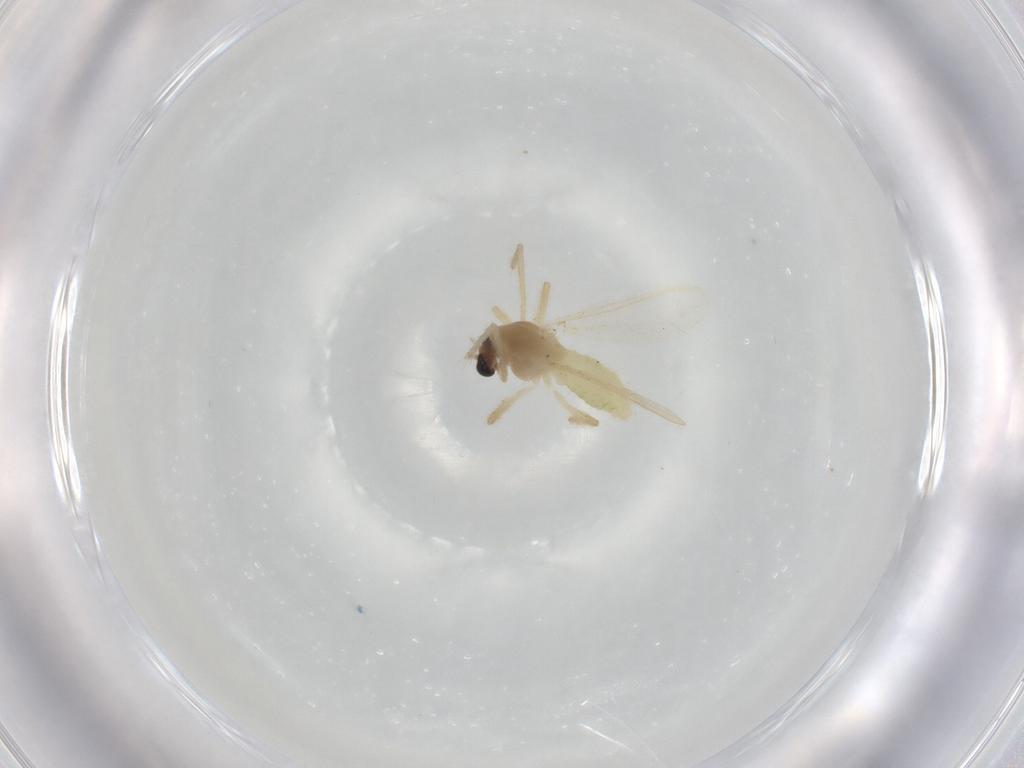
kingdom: Animalia
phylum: Arthropoda
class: Insecta
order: Diptera
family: Chironomidae
